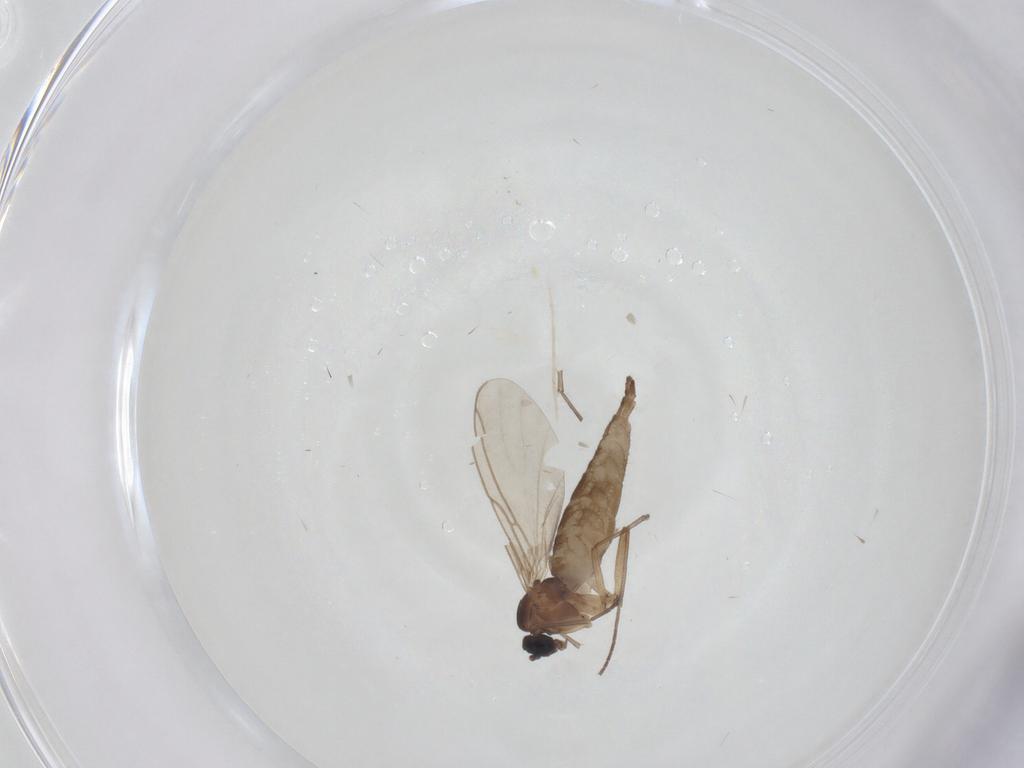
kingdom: Animalia
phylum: Arthropoda
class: Insecta
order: Diptera
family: Sciaridae
